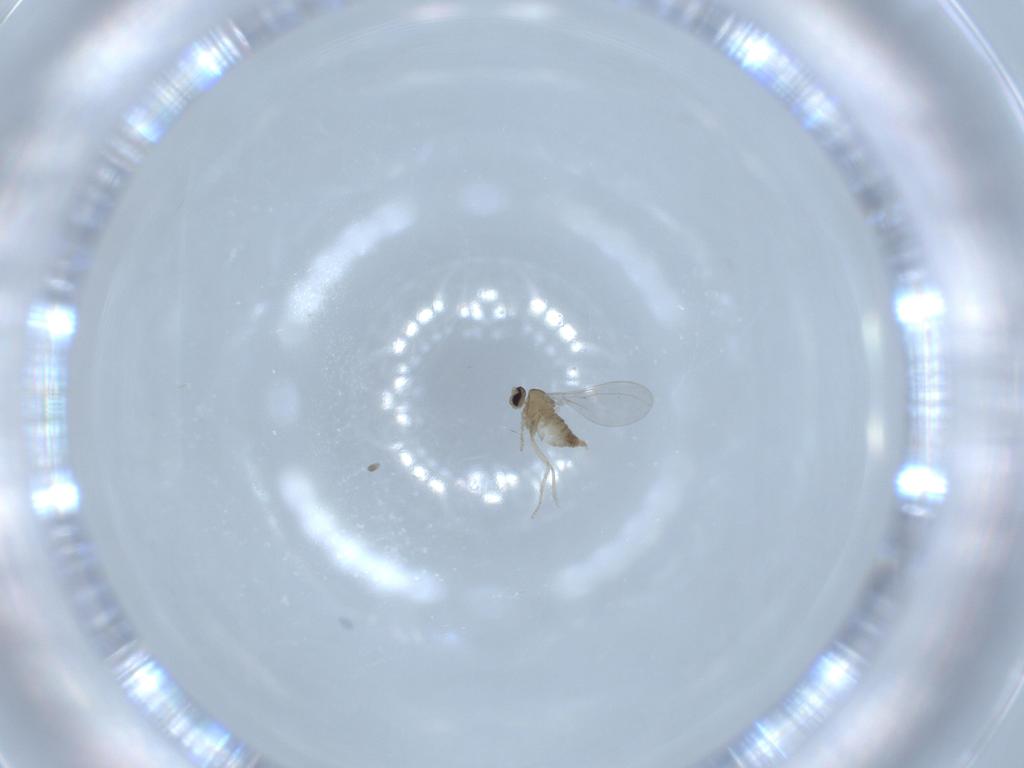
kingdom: Animalia
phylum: Arthropoda
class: Insecta
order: Diptera
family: Cecidomyiidae
